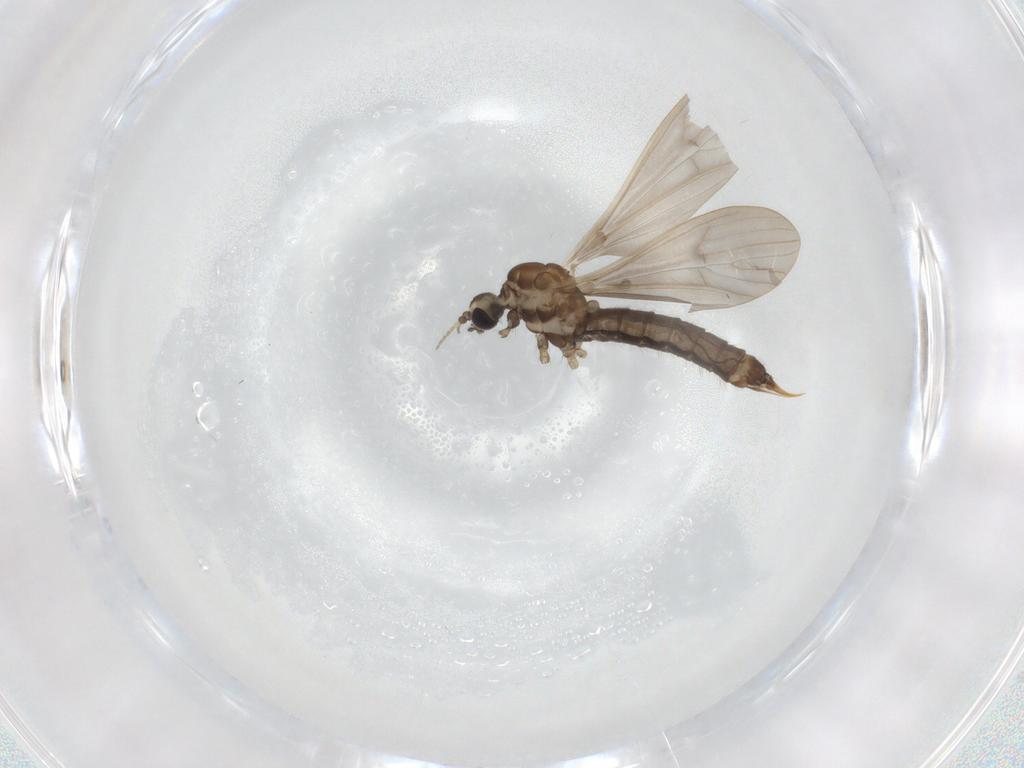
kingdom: Animalia
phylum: Arthropoda
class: Insecta
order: Diptera
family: Limoniidae
